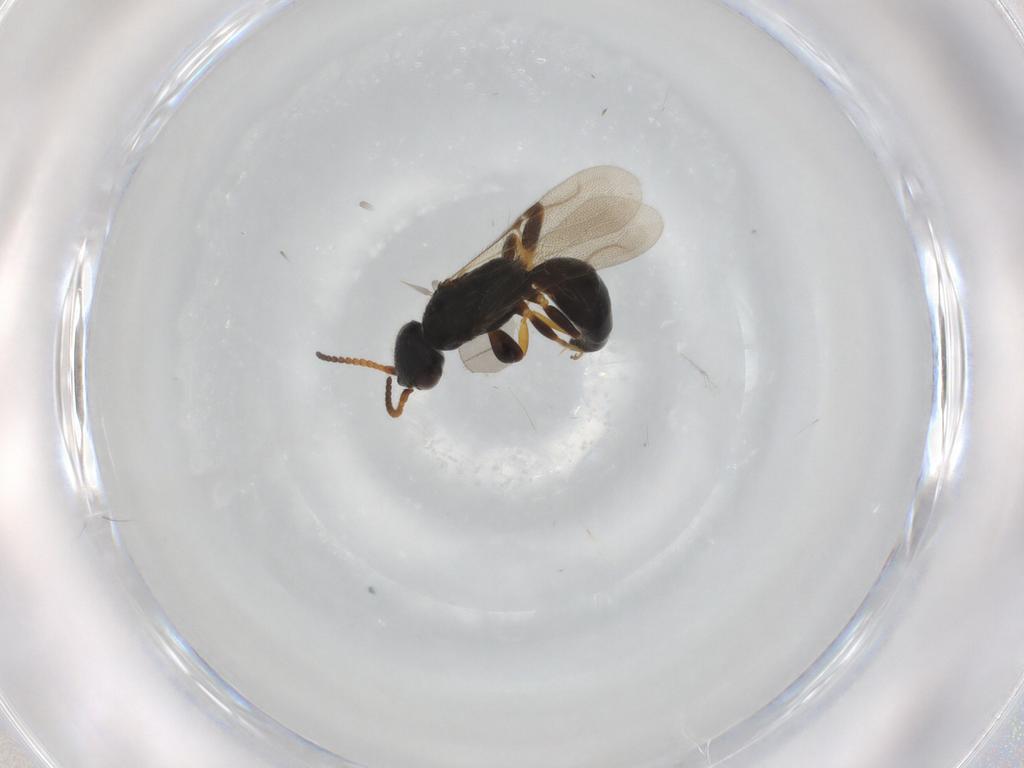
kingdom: Animalia
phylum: Arthropoda
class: Insecta
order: Hymenoptera
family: Bethylidae
